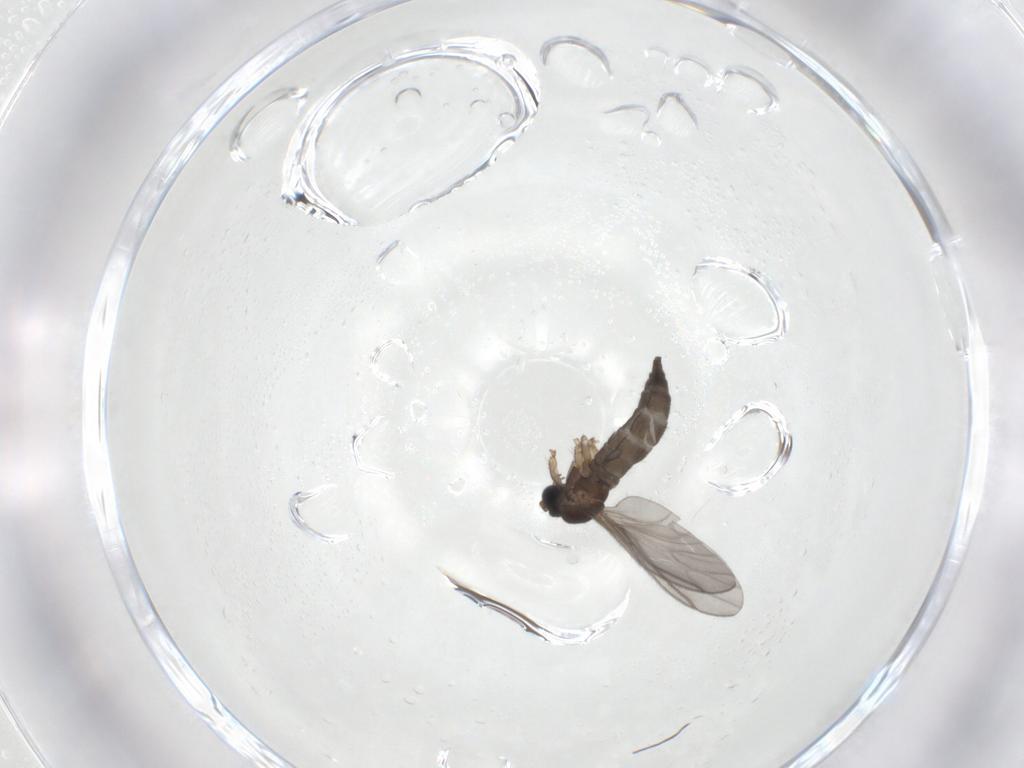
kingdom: Animalia
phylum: Arthropoda
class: Insecta
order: Diptera
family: Sciaridae
